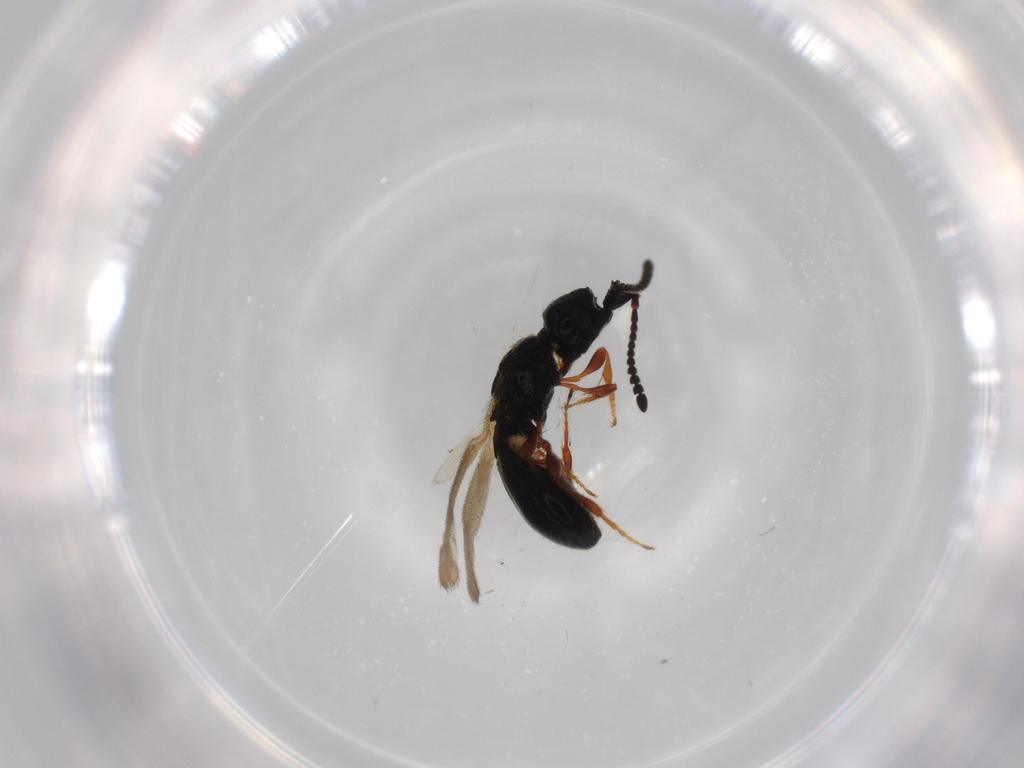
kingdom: Animalia
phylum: Arthropoda
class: Insecta
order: Hymenoptera
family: Diapriidae
